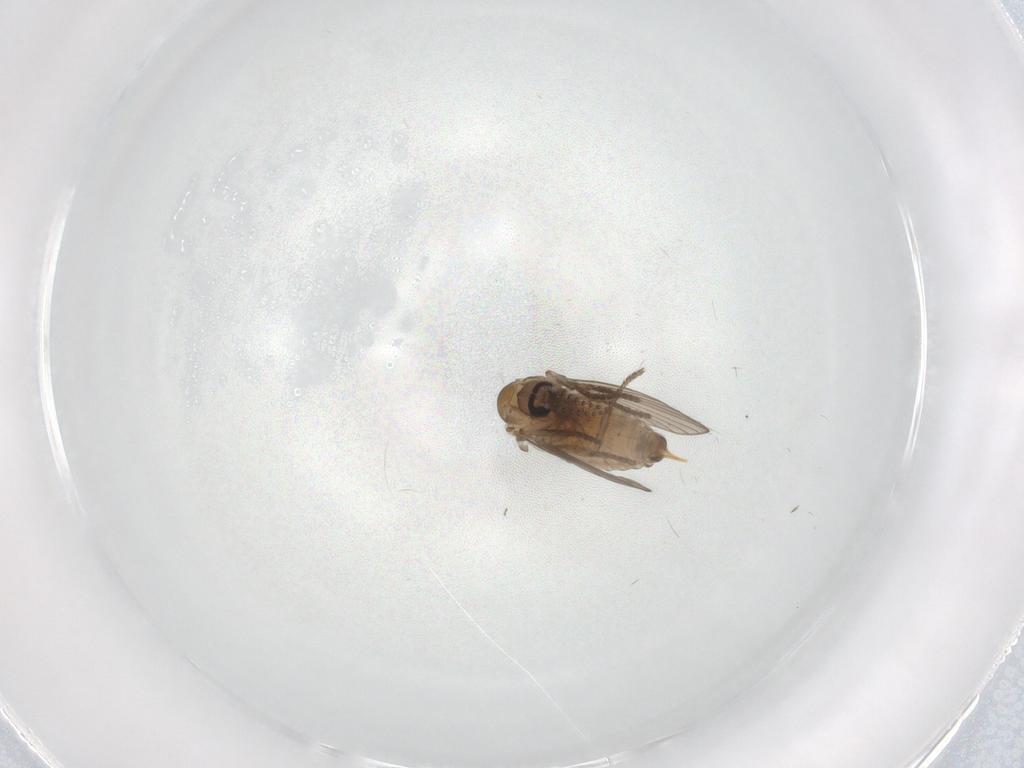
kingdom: Animalia
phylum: Arthropoda
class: Insecta
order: Diptera
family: Psychodidae
